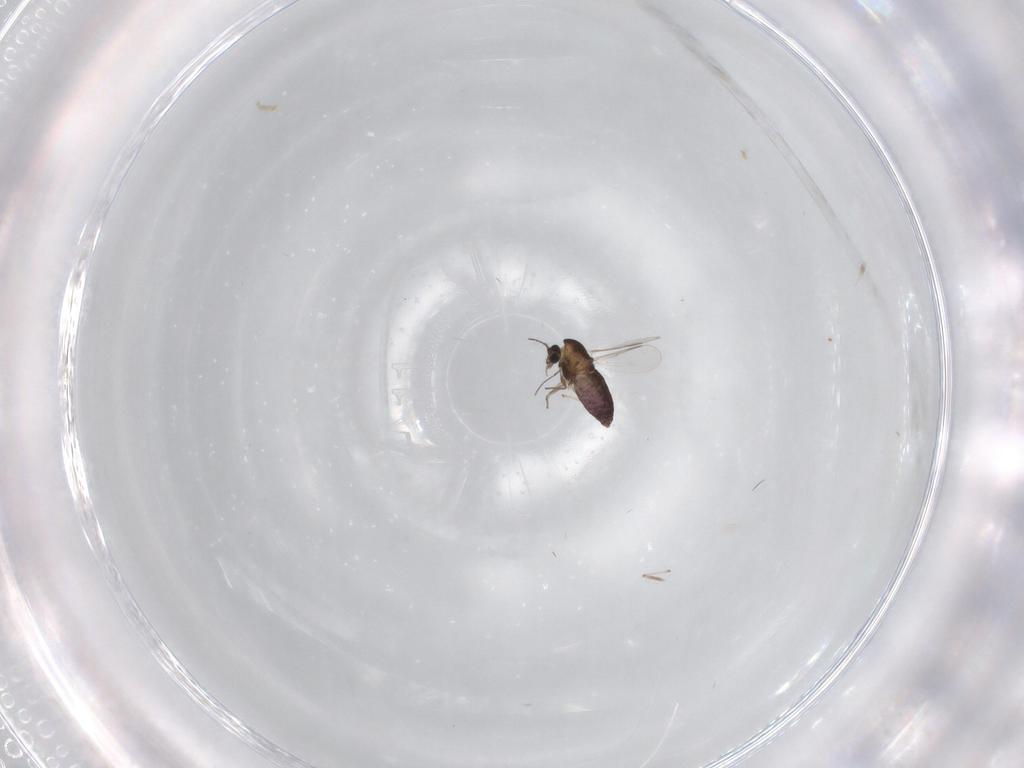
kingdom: Animalia
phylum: Arthropoda
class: Insecta
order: Diptera
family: Chironomidae
